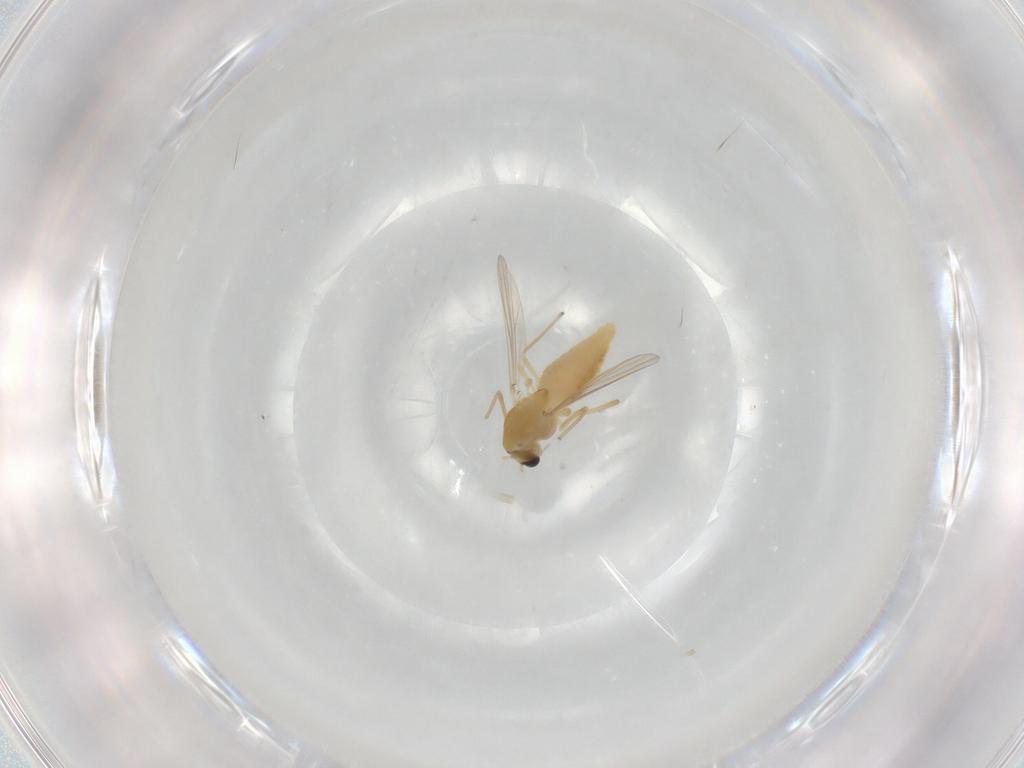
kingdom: Animalia
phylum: Arthropoda
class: Insecta
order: Diptera
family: Chironomidae
